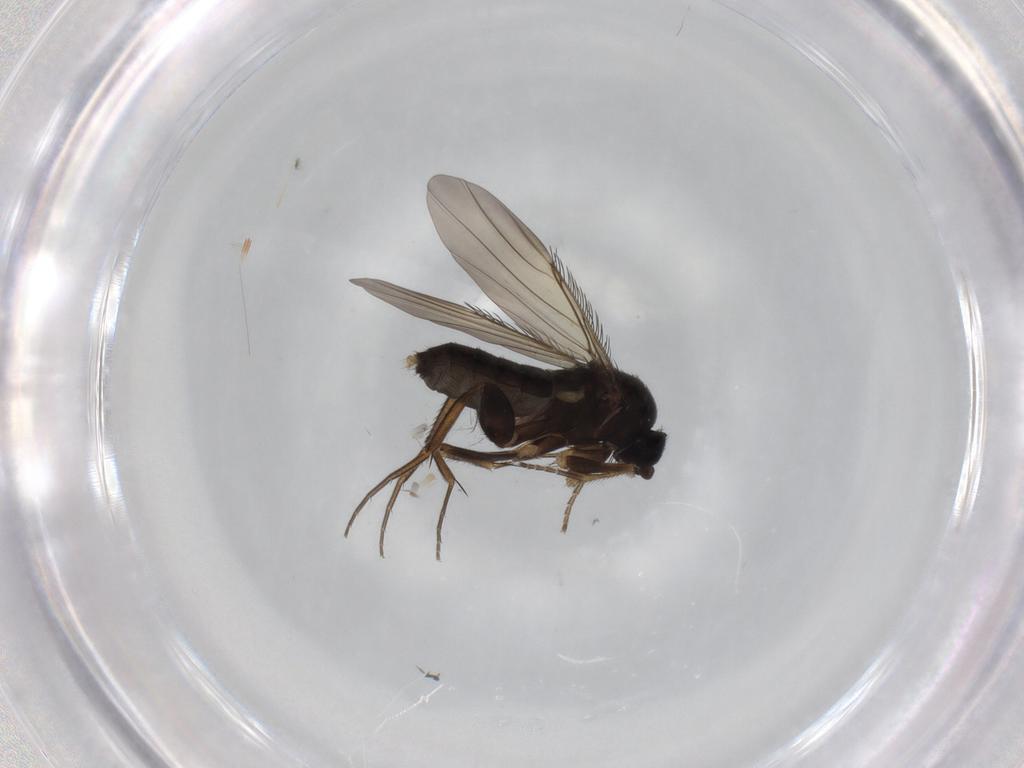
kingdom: Animalia
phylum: Arthropoda
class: Insecta
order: Diptera
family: Phoridae
